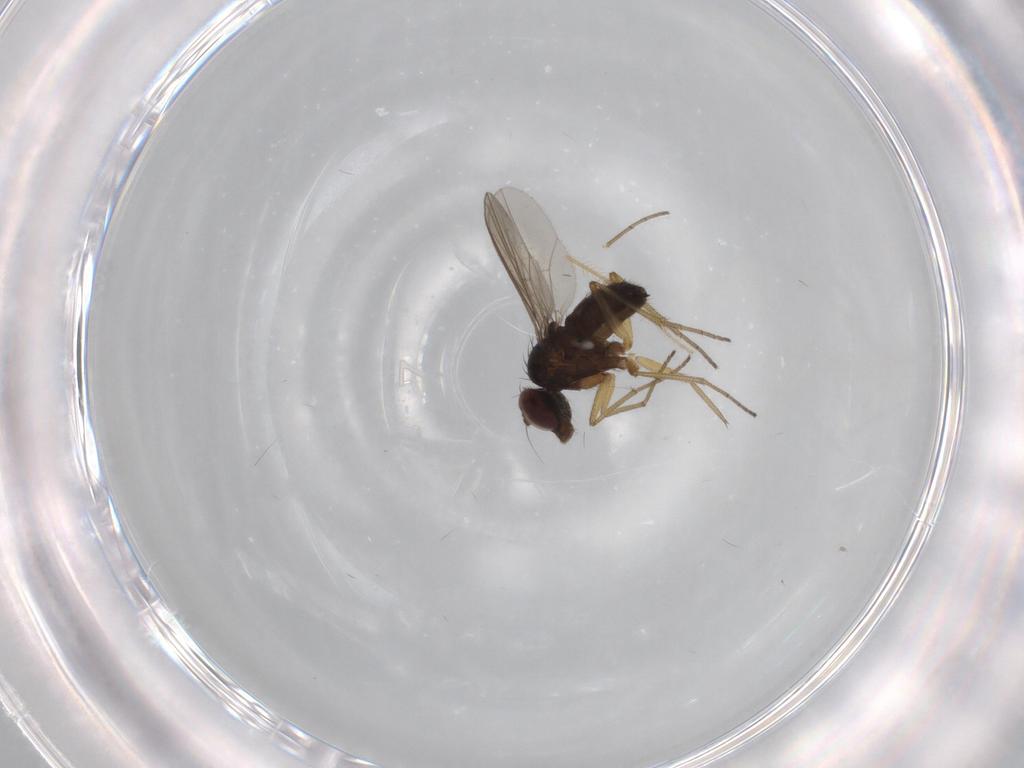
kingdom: Animalia
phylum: Arthropoda
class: Insecta
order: Diptera
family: Dolichopodidae
